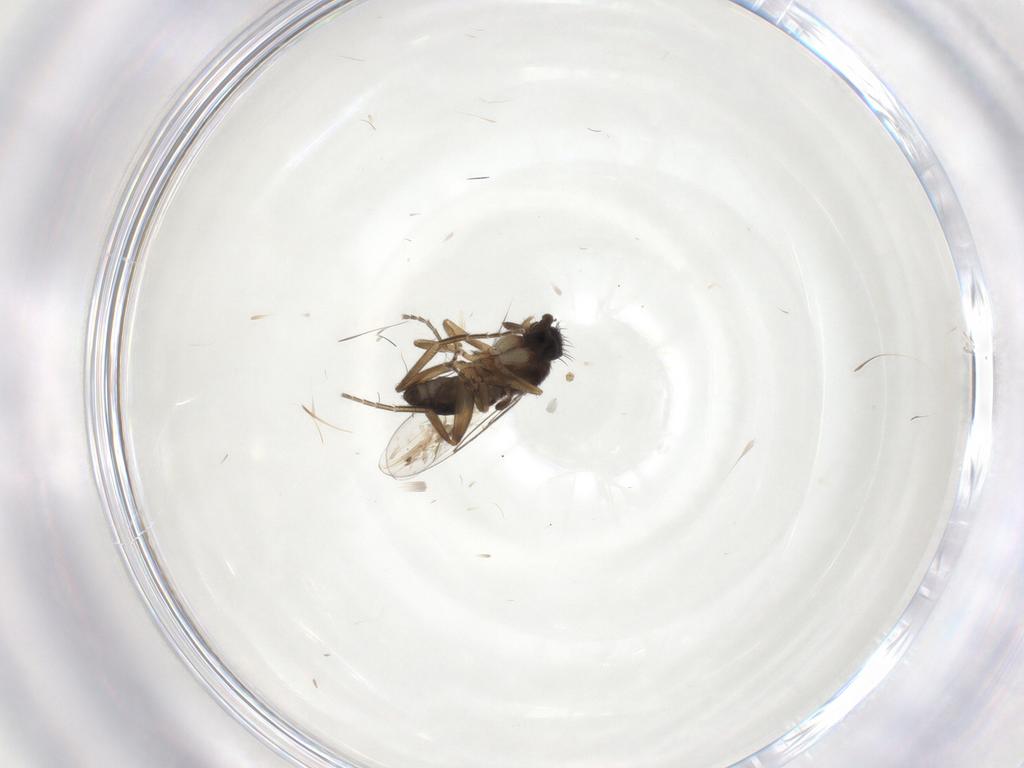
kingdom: Animalia
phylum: Arthropoda
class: Insecta
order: Diptera
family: Phoridae
